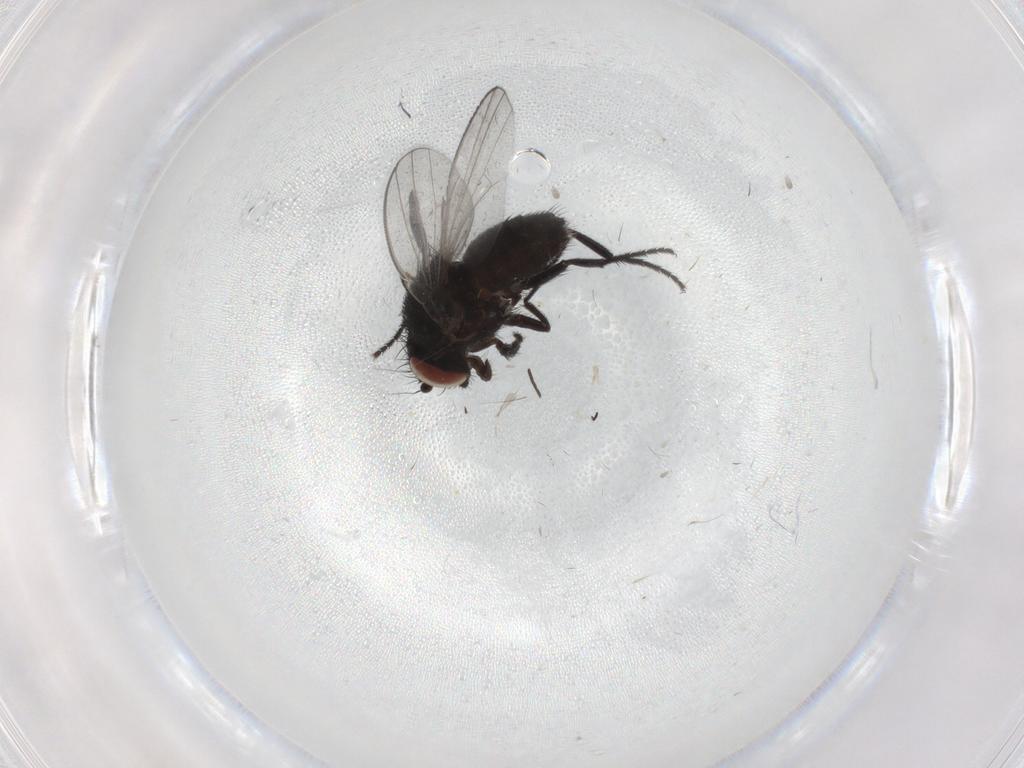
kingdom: Animalia
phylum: Arthropoda
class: Insecta
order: Diptera
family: Milichiidae
